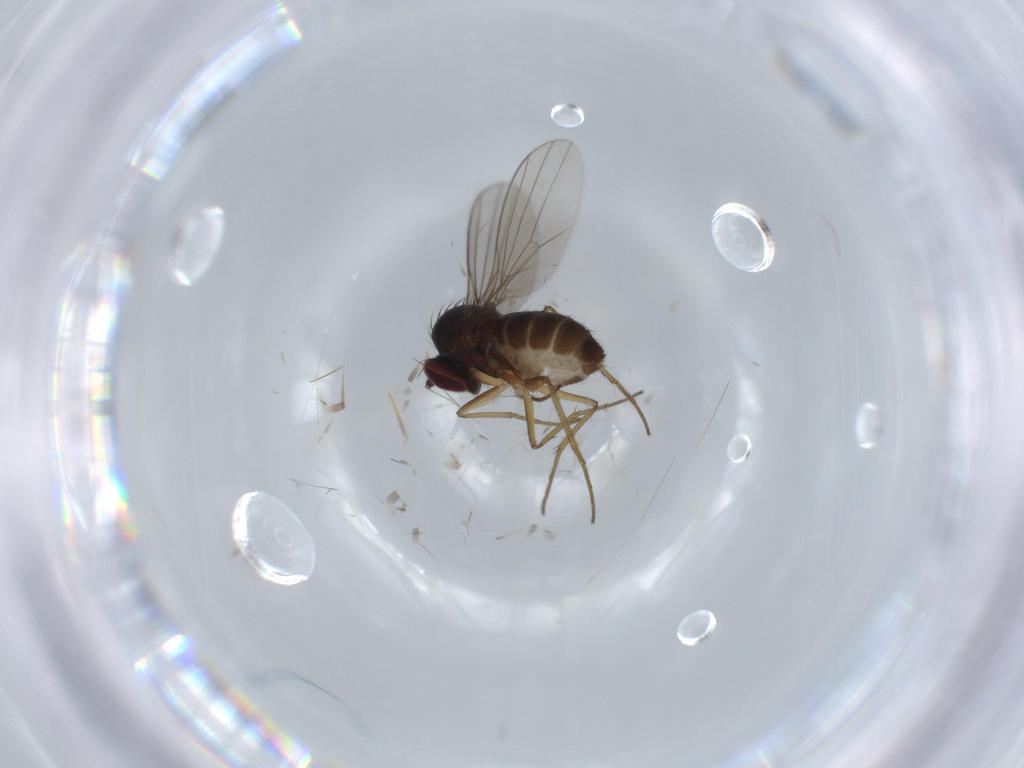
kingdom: Animalia
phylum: Arthropoda
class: Insecta
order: Diptera
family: Dolichopodidae
